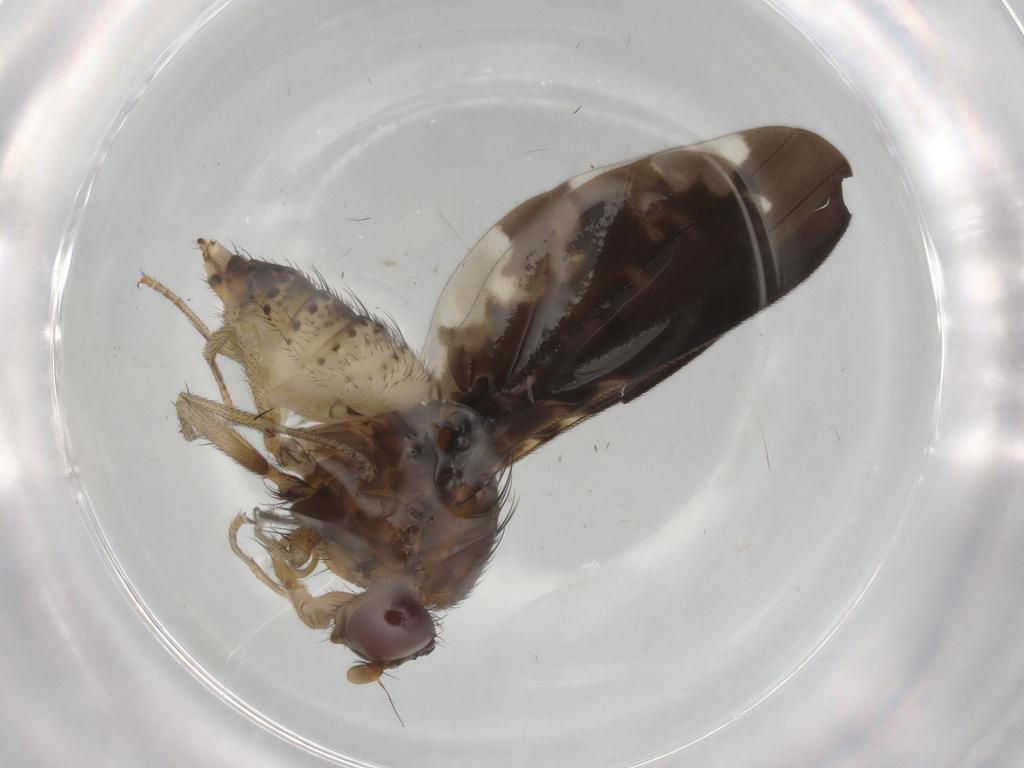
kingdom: Animalia
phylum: Arthropoda
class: Insecta
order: Diptera
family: Lauxaniidae
